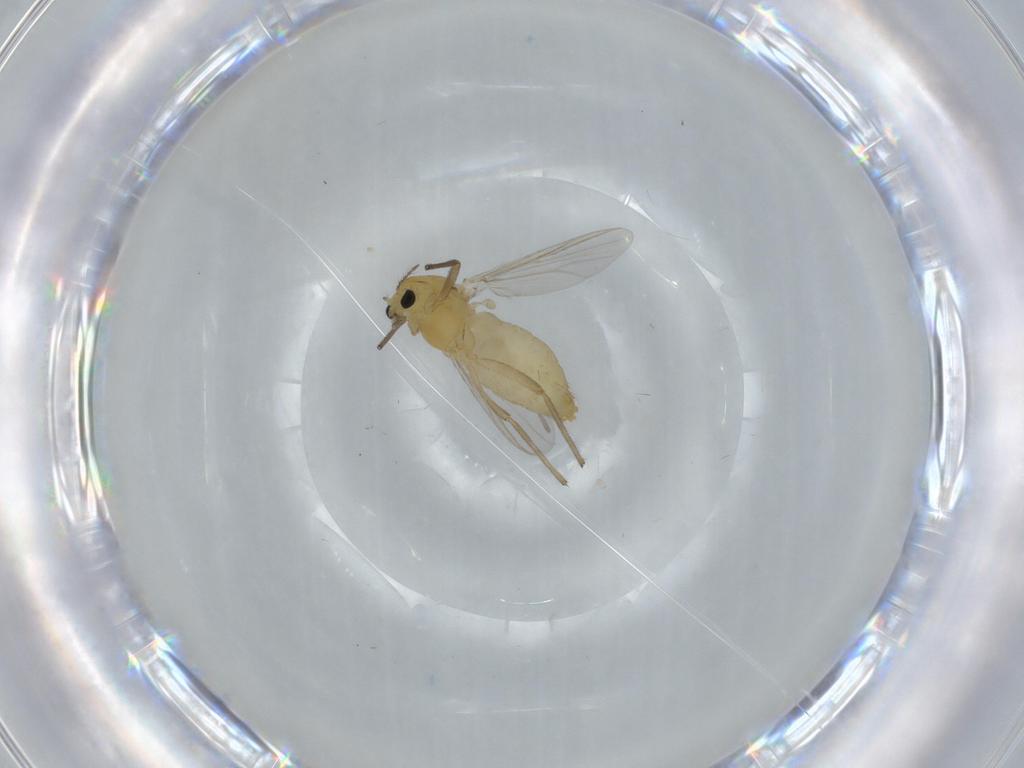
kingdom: Animalia
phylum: Arthropoda
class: Insecta
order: Diptera
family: Chironomidae
